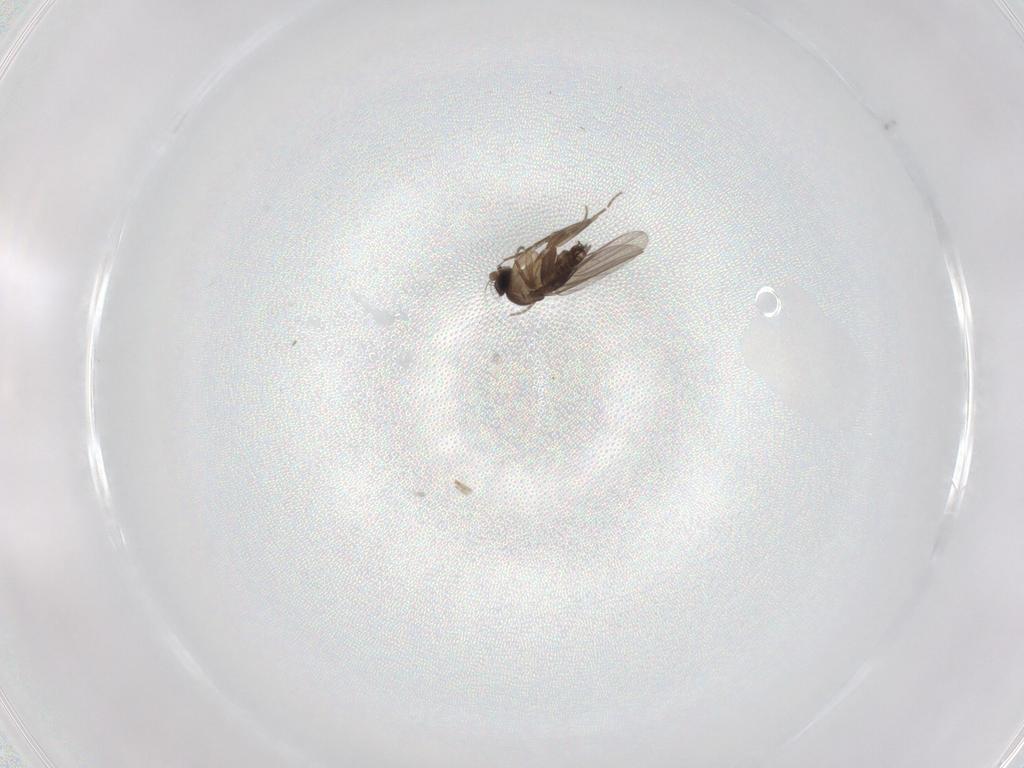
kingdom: Animalia
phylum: Arthropoda
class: Insecta
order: Diptera
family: Phoridae
